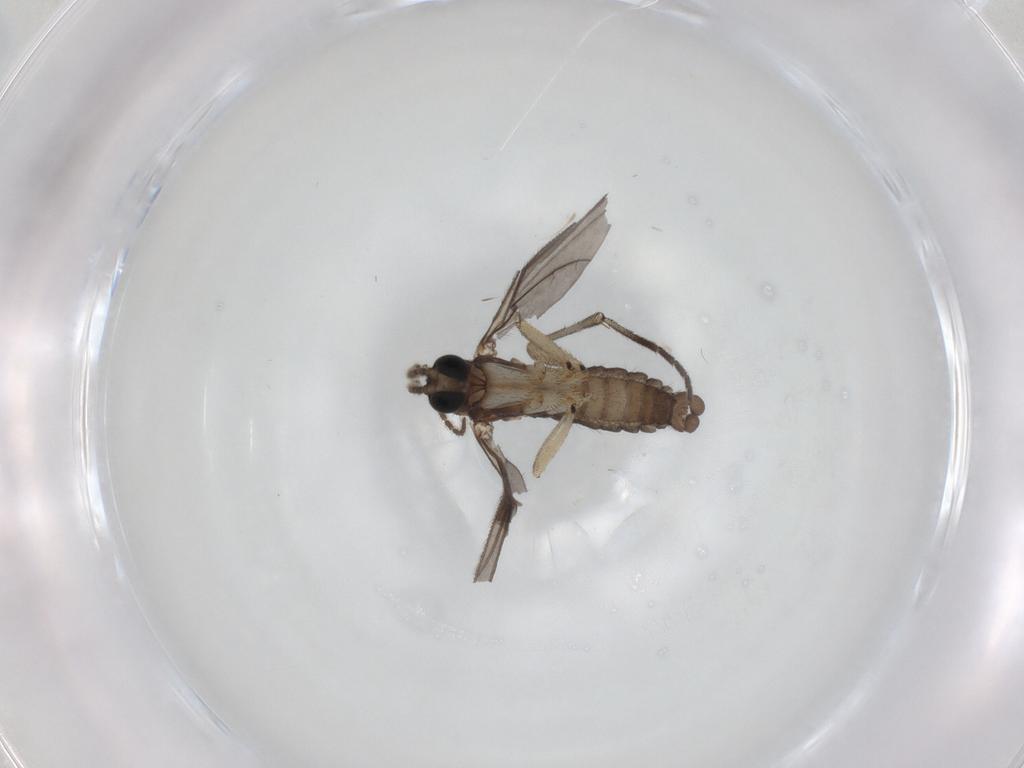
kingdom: Animalia
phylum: Arthropoda
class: Insecta
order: Diptera
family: Sciaridae
